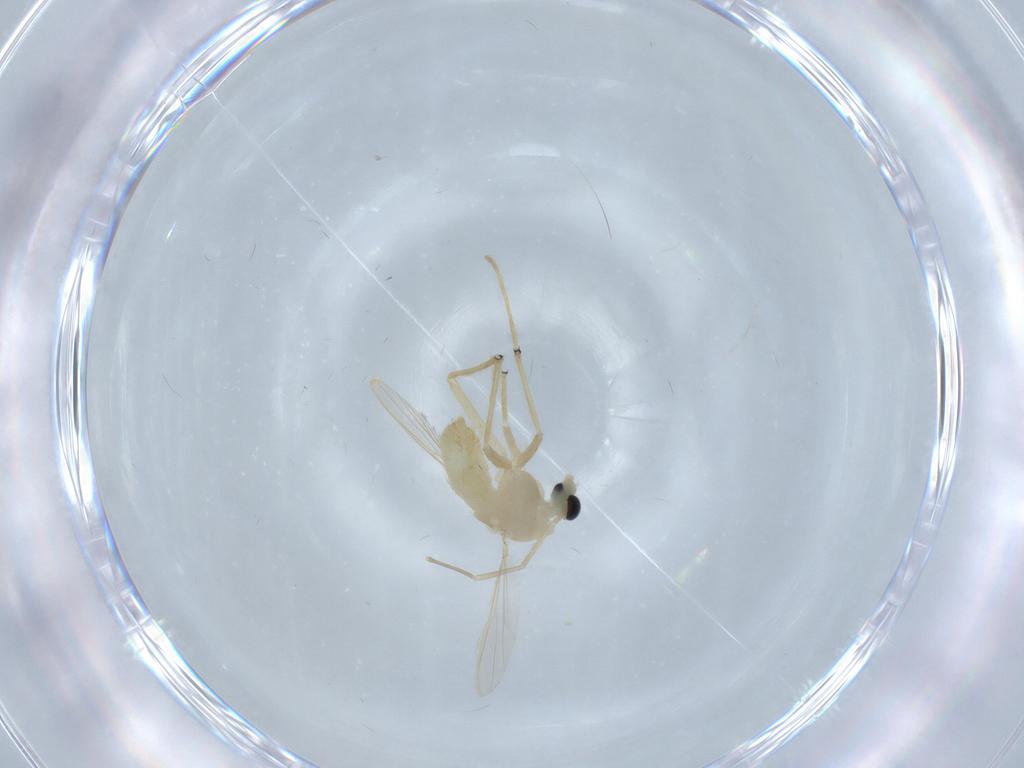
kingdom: Animalia
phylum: Arthropoda
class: Insecta
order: Diptera
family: Chironomidae
